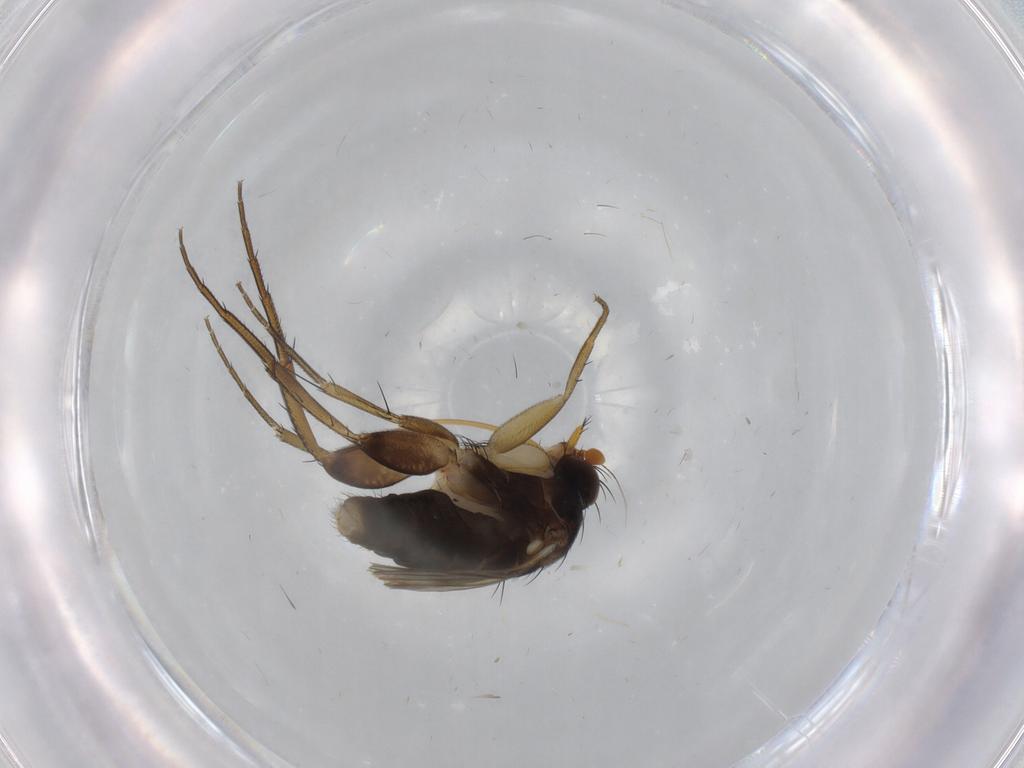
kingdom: Animalia
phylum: Arthropoda
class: Insecta
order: Diptera
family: Phoridae
